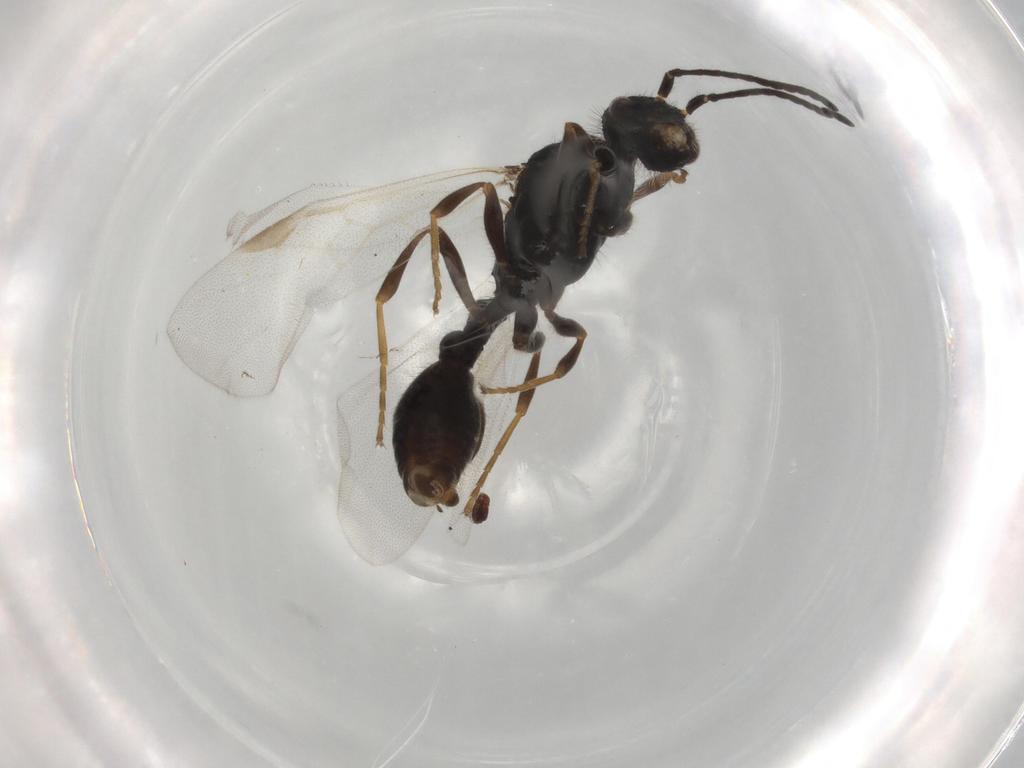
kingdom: Animalia
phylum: Arthropoda
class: Insecta
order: Hymenoptera
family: Formicidae
